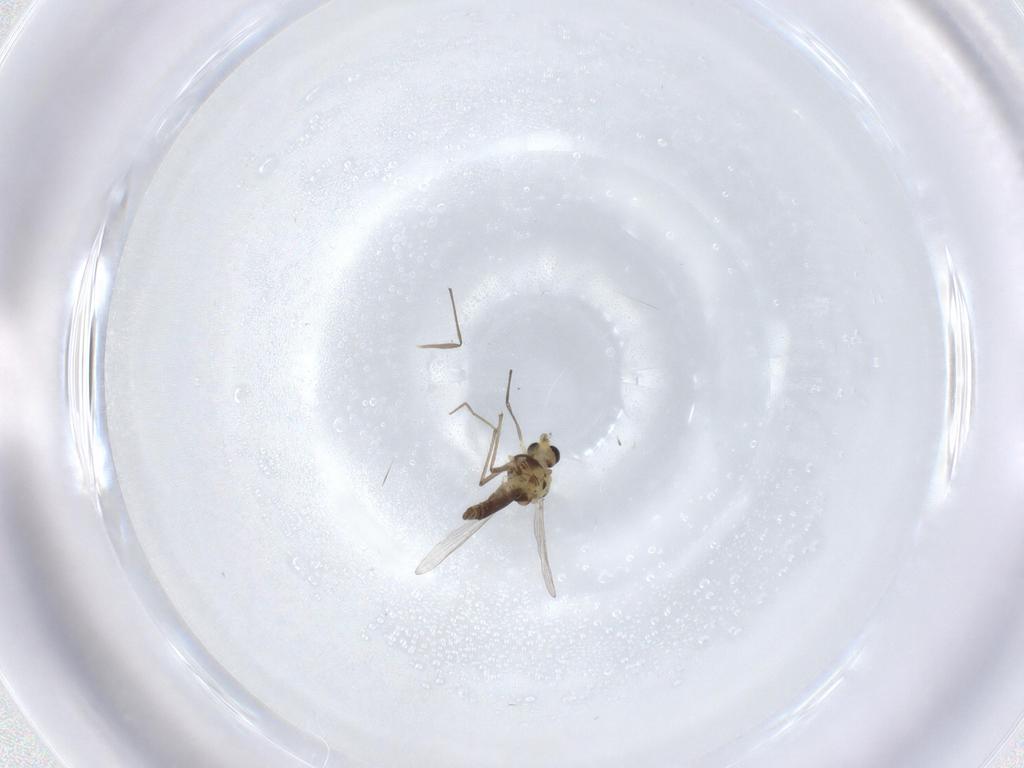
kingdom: Animalia
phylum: Arthropoda
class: Insecta
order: Diptera
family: Chironomidae
